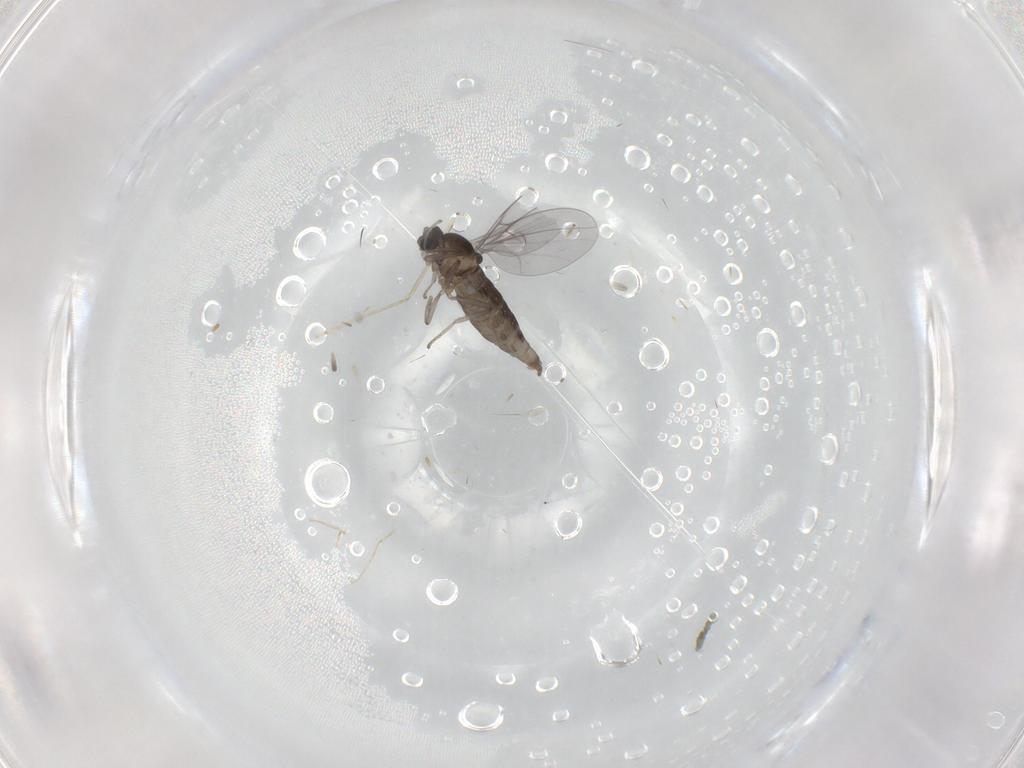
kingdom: Animalia
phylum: Arthropoda
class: Insecta
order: Diptera
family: Cecidomyiidae
